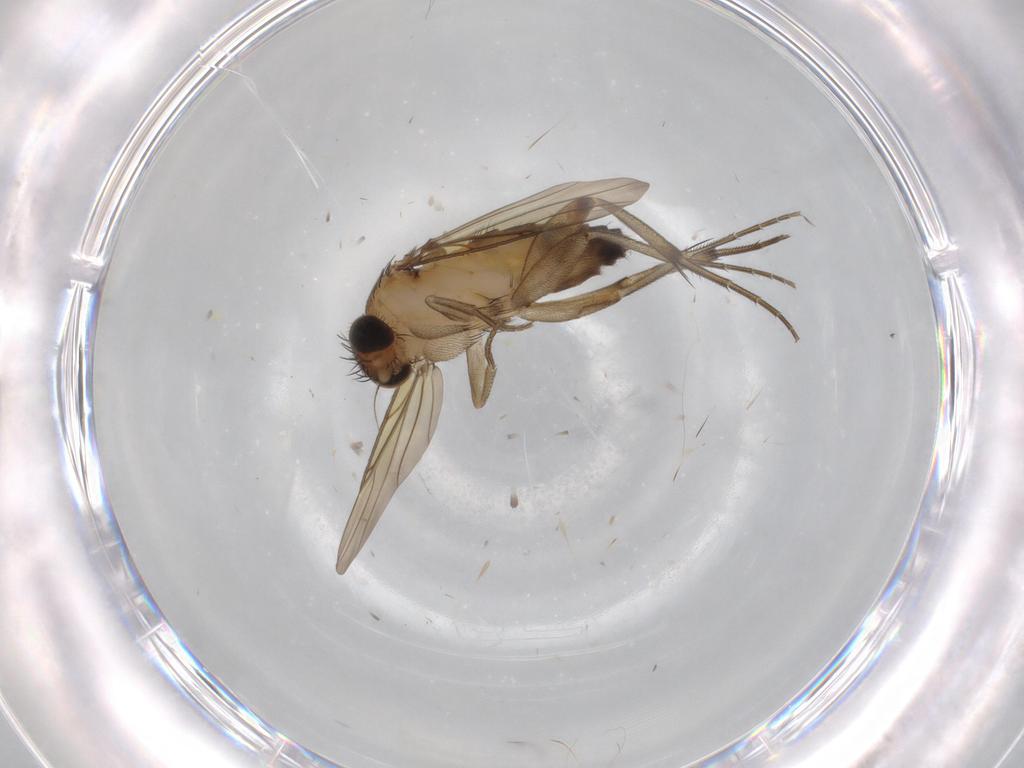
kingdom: Animalia
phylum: Arthropoda
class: Insecta
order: Diptera
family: Phoridae
